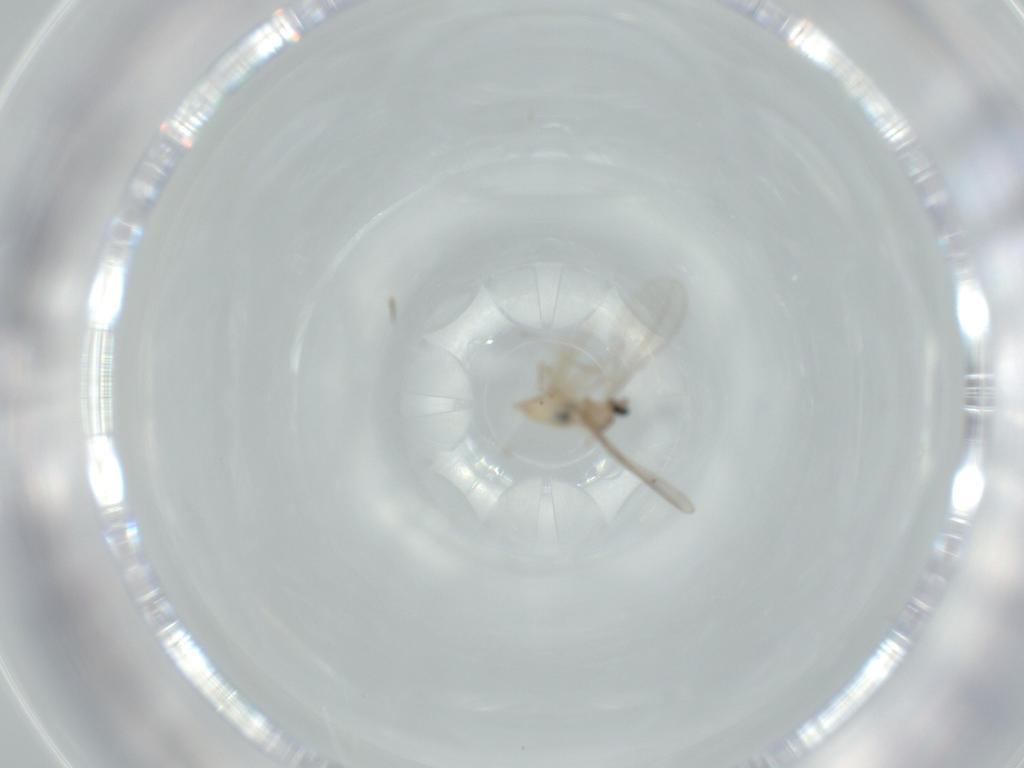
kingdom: Animalia
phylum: Arthropoda
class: Insecta
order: Diptera
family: Cecidomyiidae
